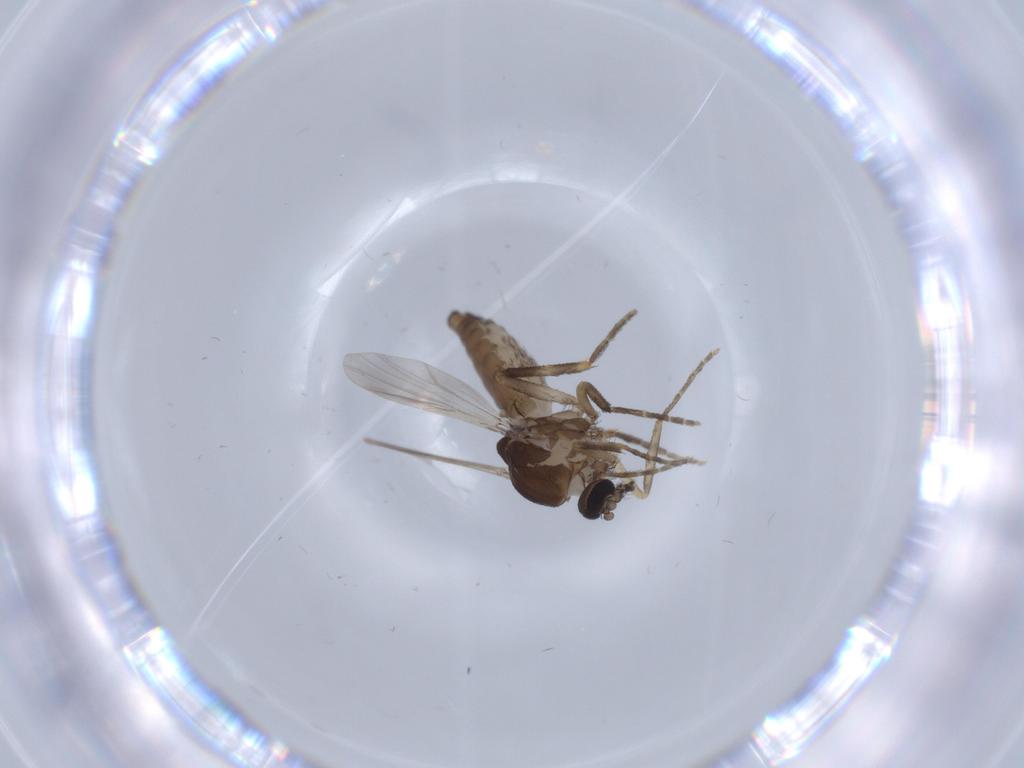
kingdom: Animalia
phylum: Arthropoda
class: Insecta
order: Diptera
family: Ceratopogonidae
